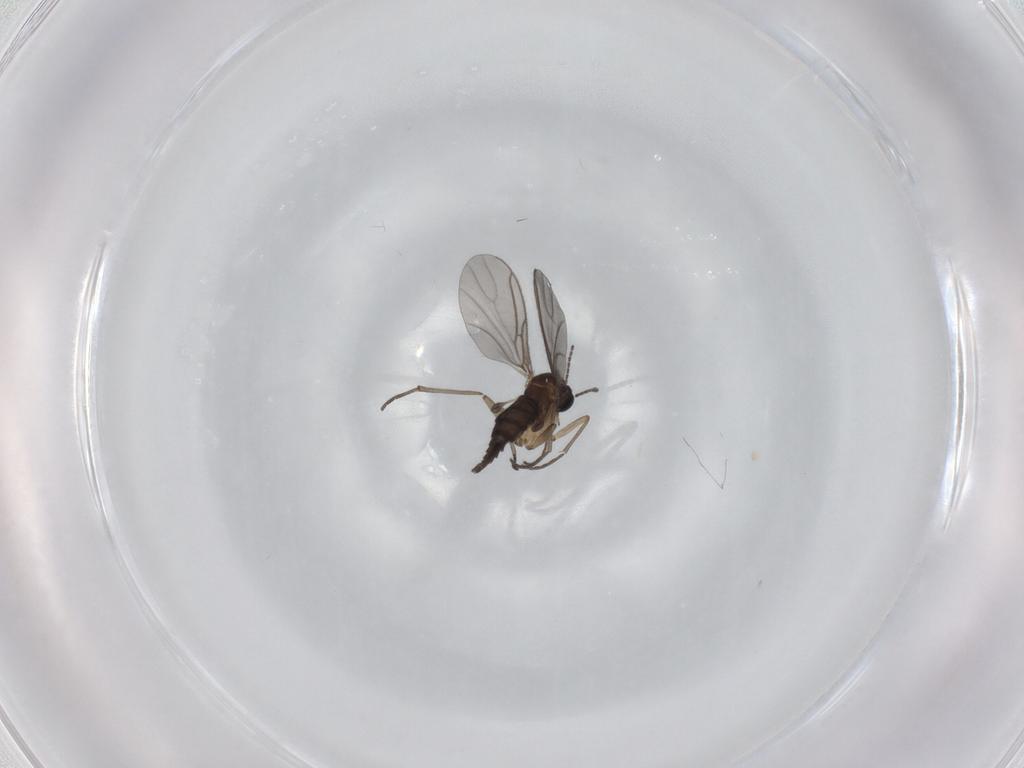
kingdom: Animalia
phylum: Arthropoda
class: Insecta
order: Diptera
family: Sciaridae
